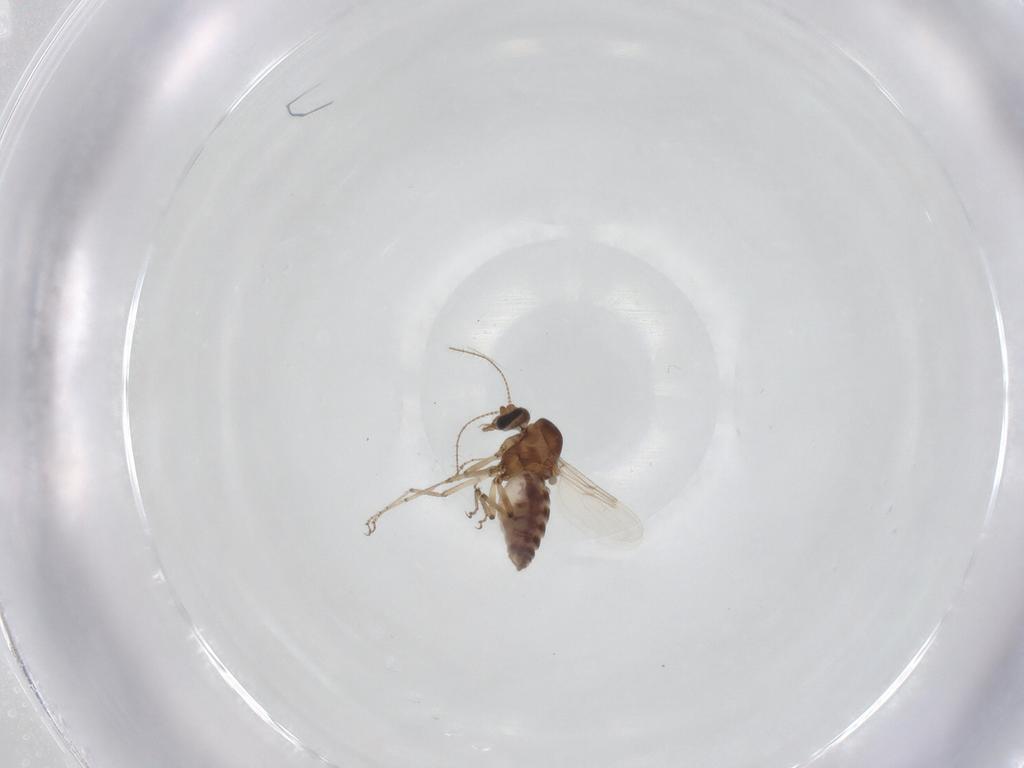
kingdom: Animalia
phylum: Arthropoda
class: Insecta
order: Diptera
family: Ceratopogonidae
